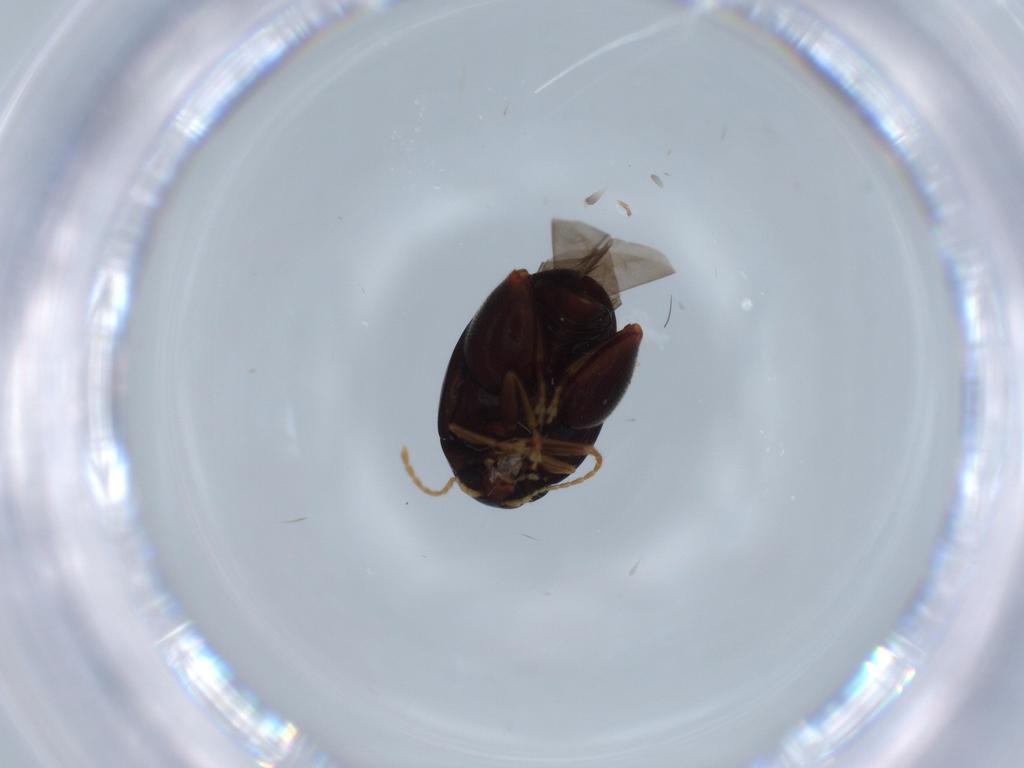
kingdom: Animalia
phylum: Arthropoda
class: Insecta
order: Coleoptera
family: Chrysomelidae
